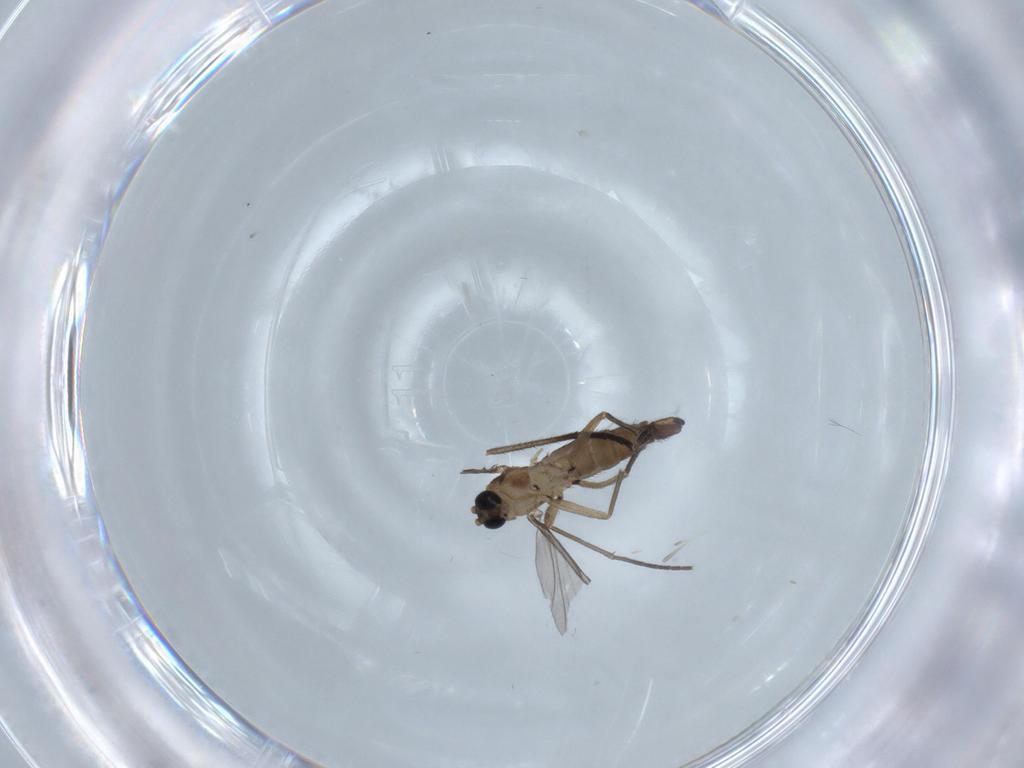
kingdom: Animalia
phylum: Arthropoda
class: Insecta
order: Diptera
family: Sciaridae
